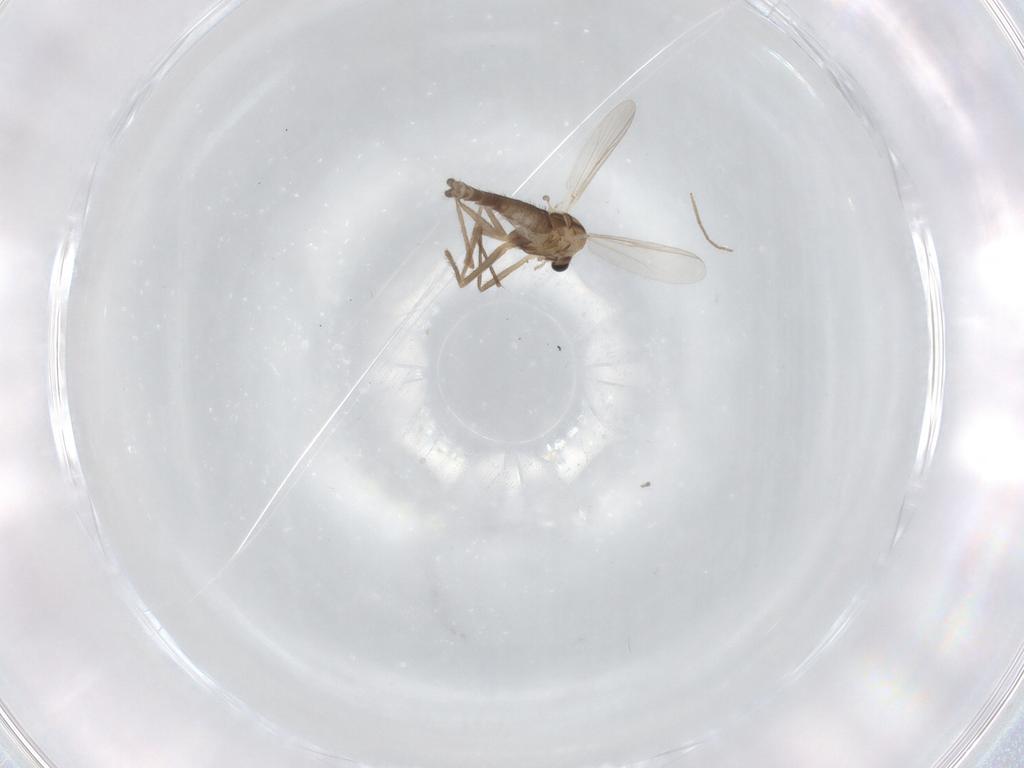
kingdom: Animalia
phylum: Arthropoda
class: Insecta
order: Diptera
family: Chironomidae
